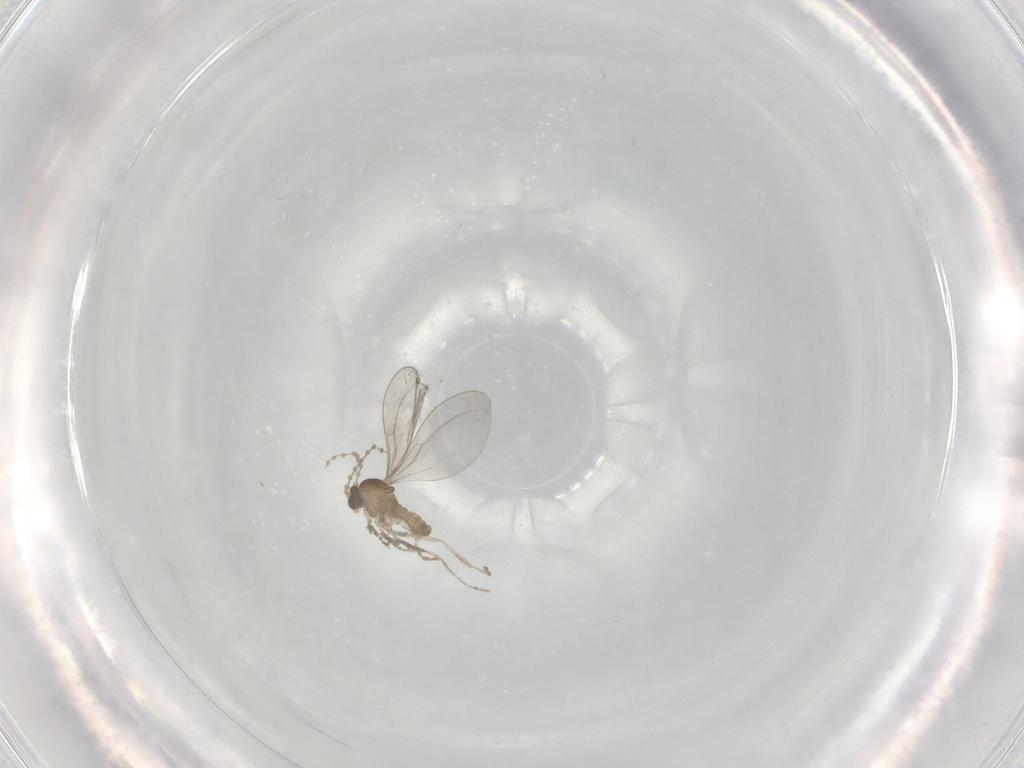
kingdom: Animalia
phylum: Arthropoda
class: Insecta
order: Diptera
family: Cecidomyiidae
